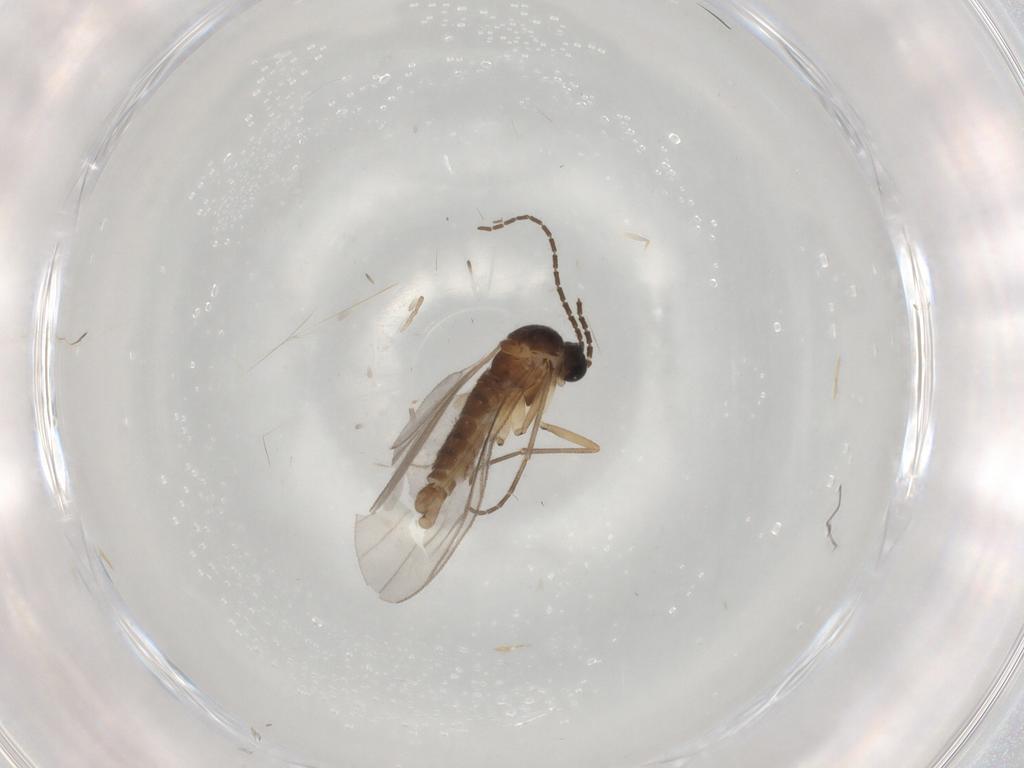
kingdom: Animalia
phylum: Arthropoda
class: Insecta
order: Diptera
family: Sciaridae
